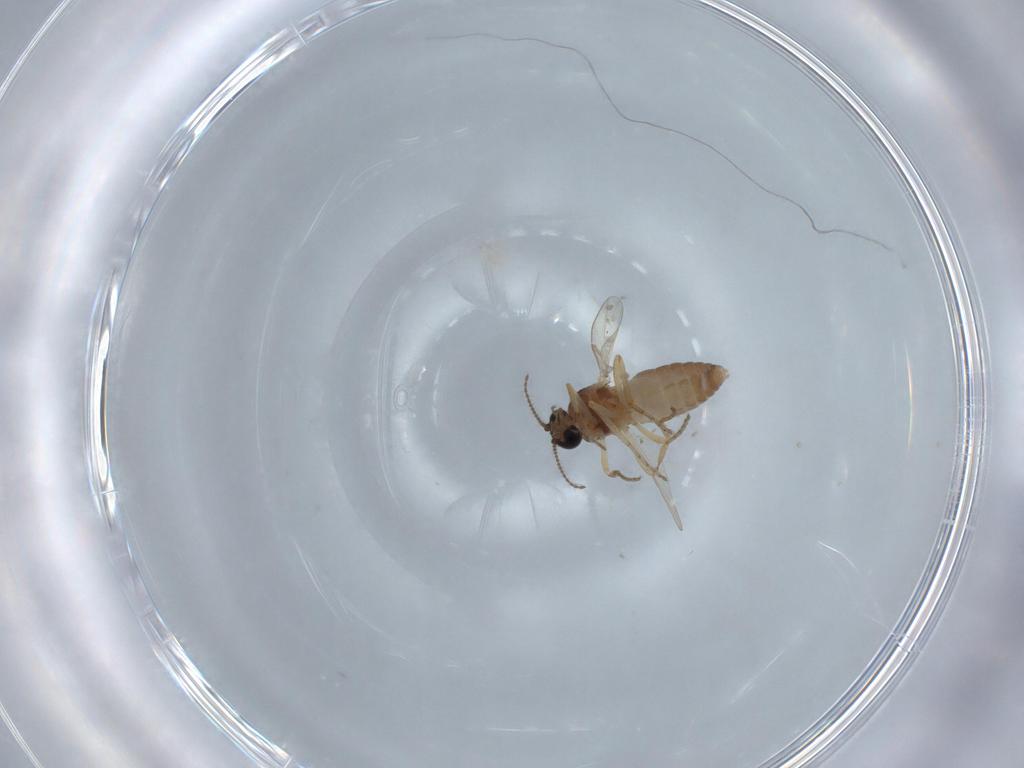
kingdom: Animalia
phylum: Arthropoda
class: Insecta
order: Diptera
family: Ceratopogonidae
